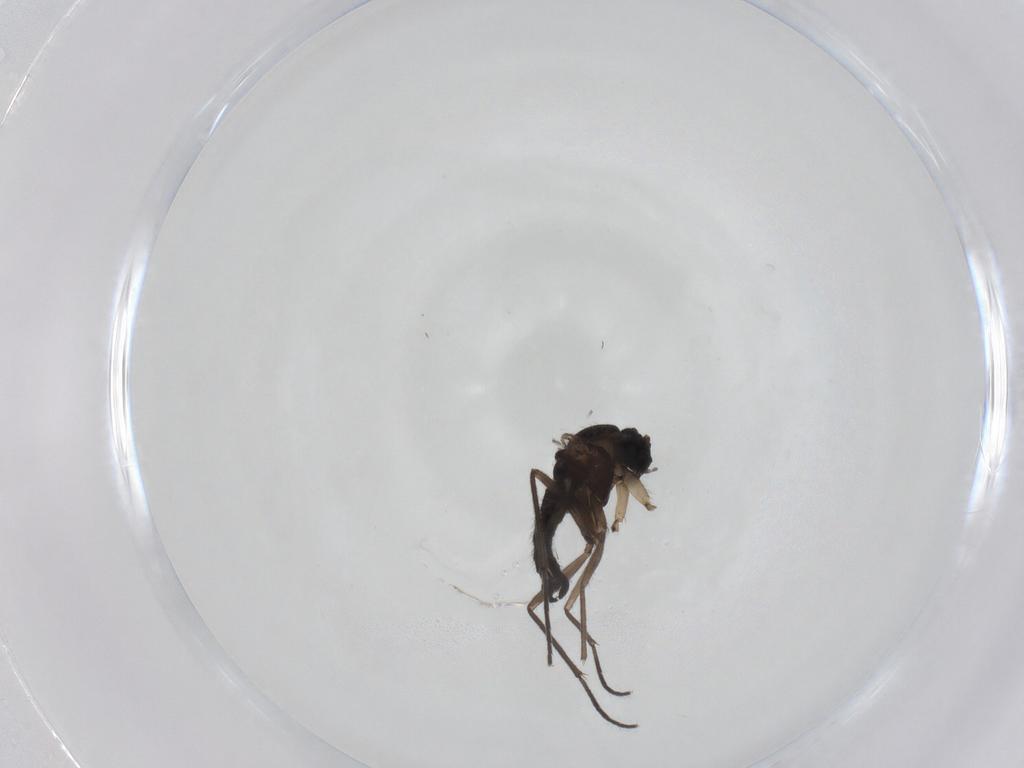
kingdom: Animalia
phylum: Arthropoda
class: Insecta
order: Diptera
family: Sciaridae
